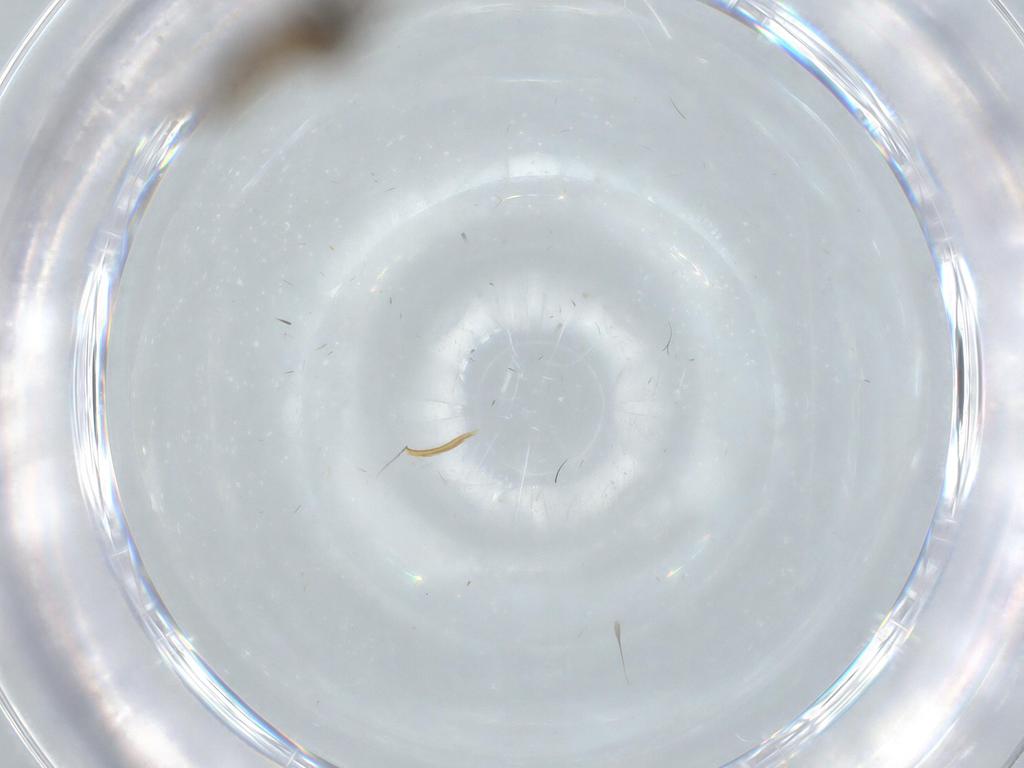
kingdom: Animalia
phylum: Arthropoda
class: Insecta
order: Diptera
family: Sciaridae
